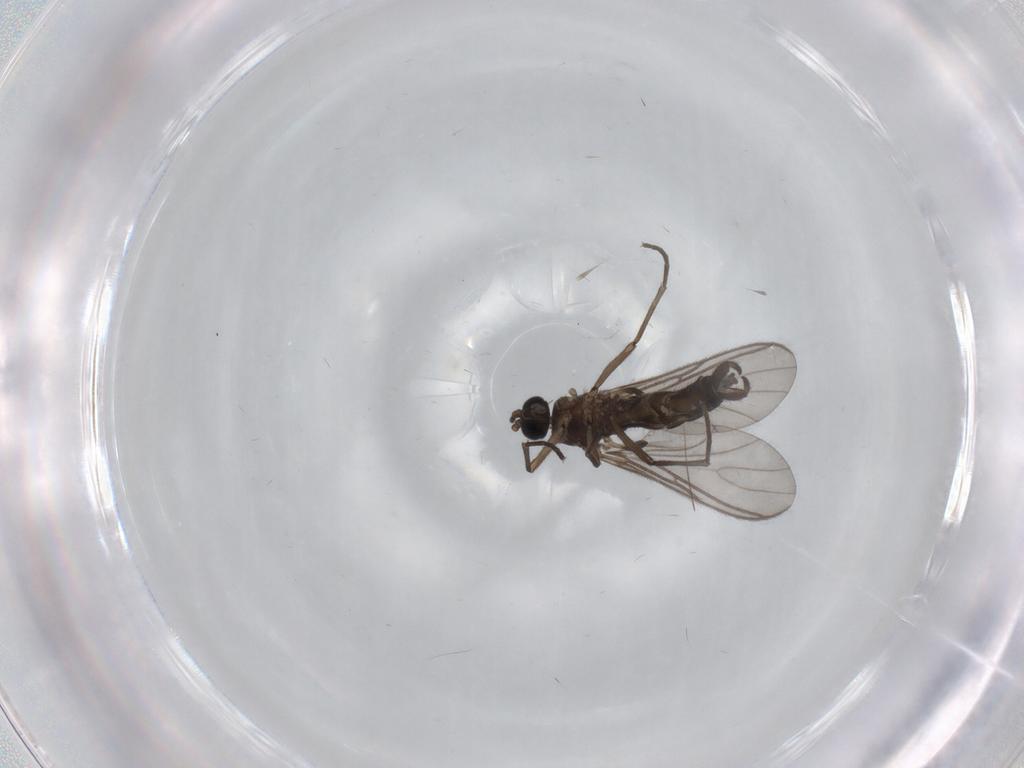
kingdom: Animalia
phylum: Arthropoda
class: Insecta
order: Diptera
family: Sciaridae
